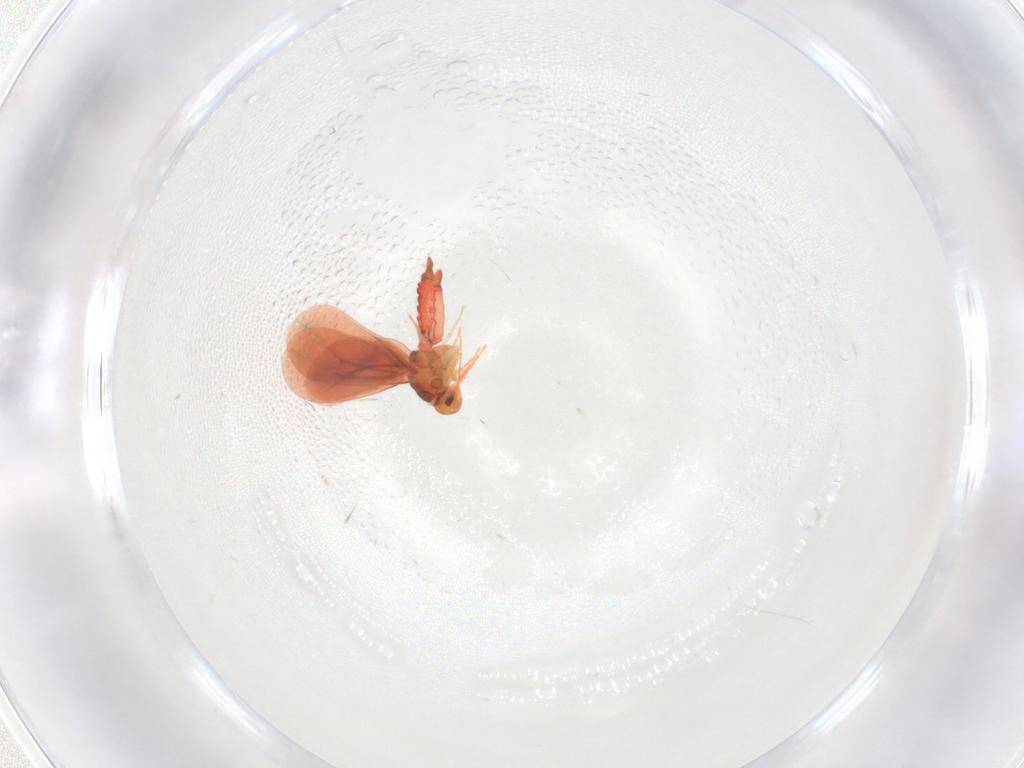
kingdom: Animalia
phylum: Arthropoda
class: Insecta
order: Hemiptera
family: Aleyrodidae
